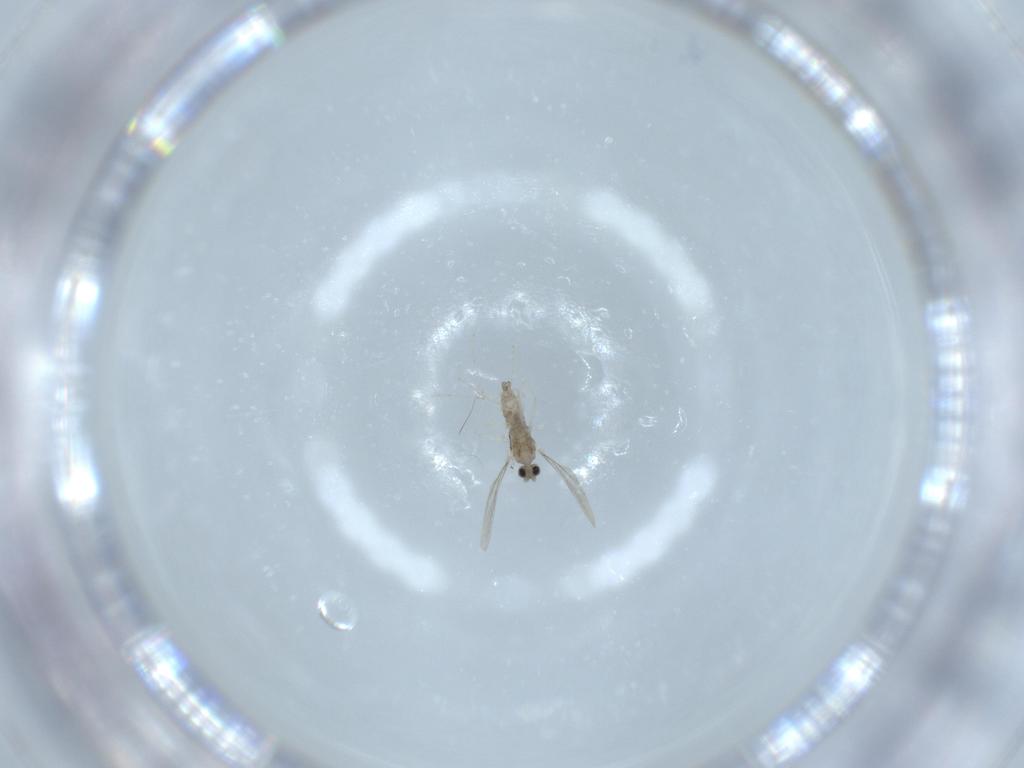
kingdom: Animalia
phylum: Arthropoda
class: Insecta
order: Diptera
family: Cecidomyiidae
